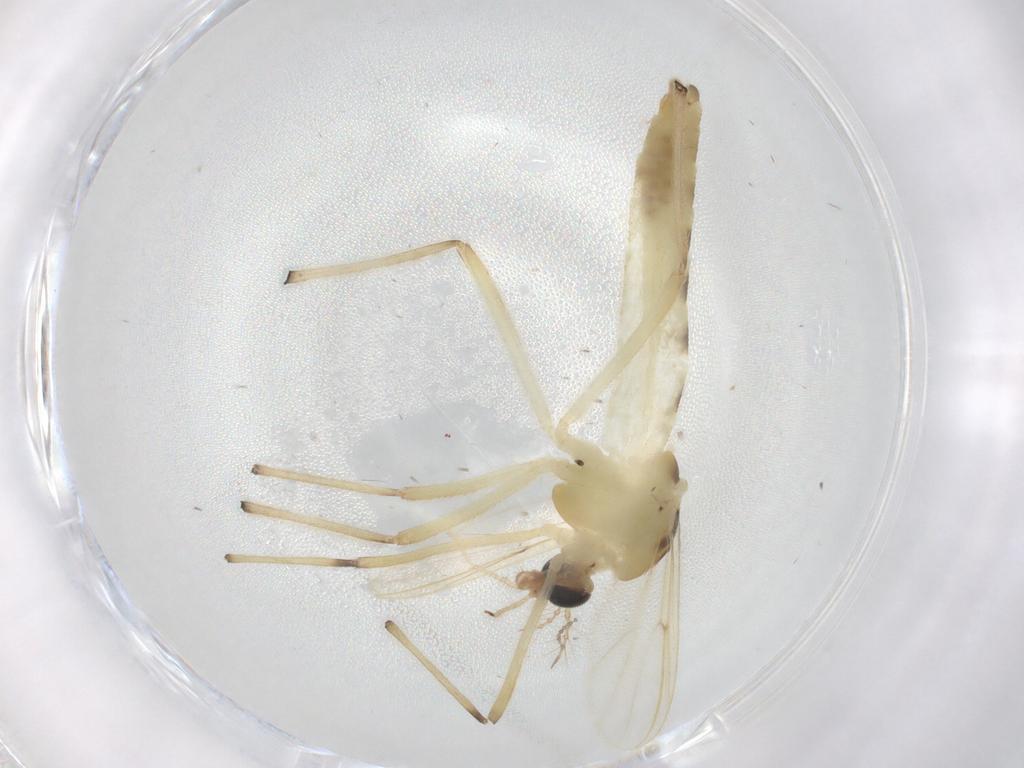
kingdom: Animalia
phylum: Arthropoda
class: Insecta
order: Diptera
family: Chironomidae
